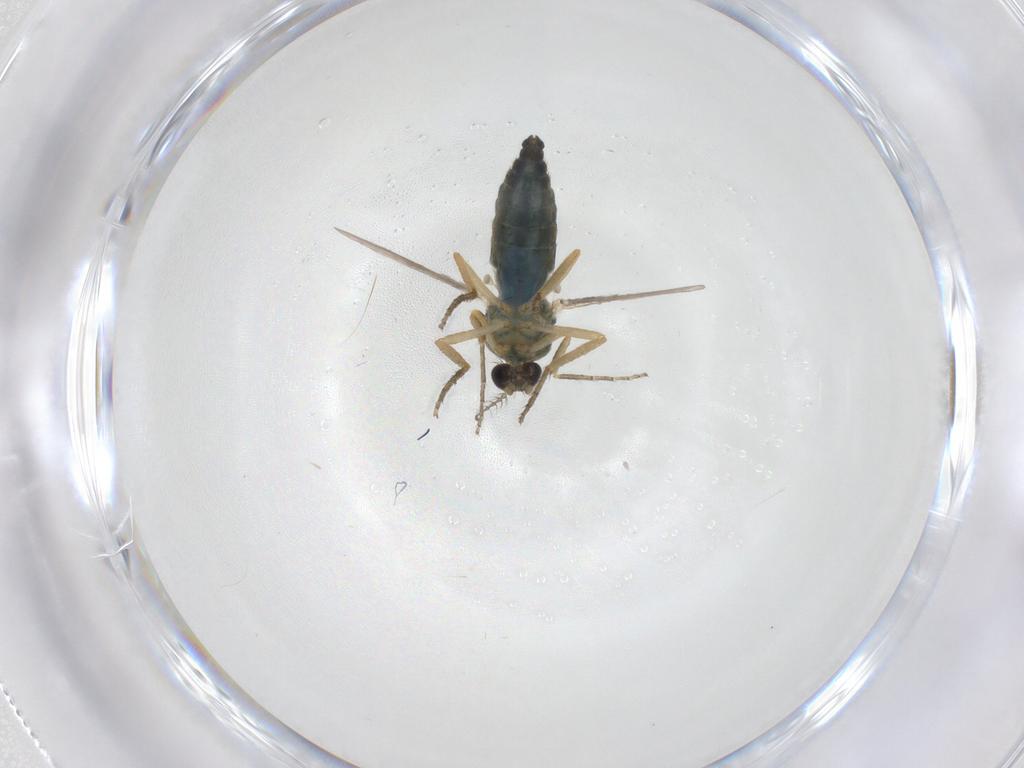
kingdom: Animalia
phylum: Arthropoda
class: Insecta
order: Diptera
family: Ceratopogonidae
